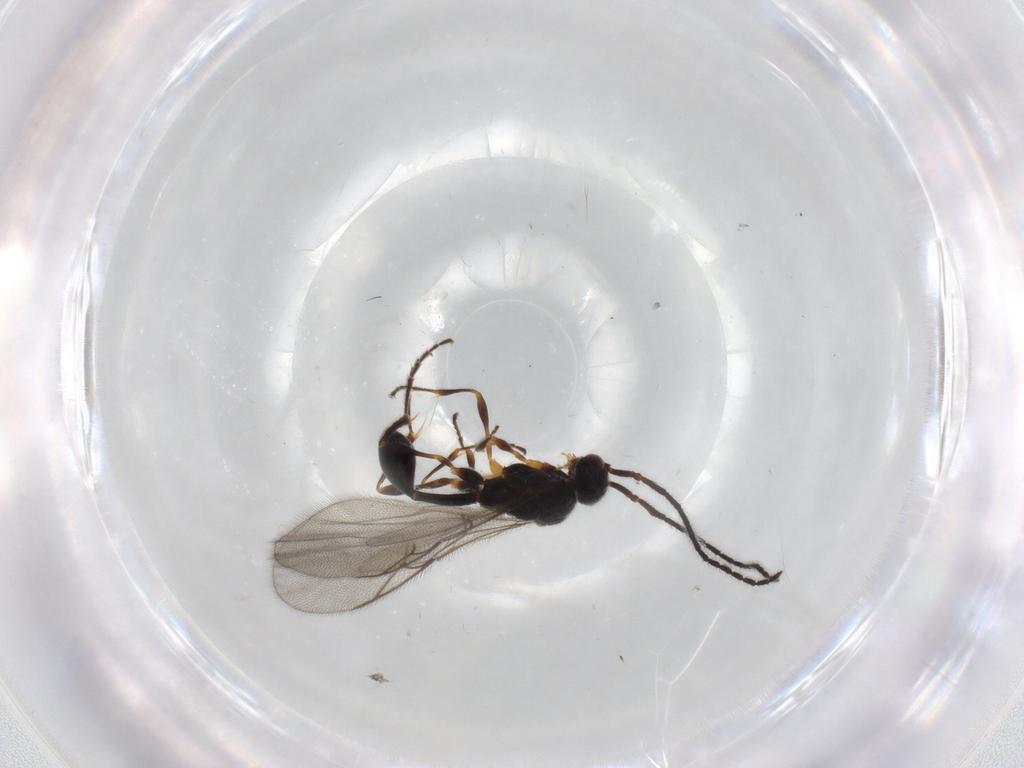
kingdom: Animalia
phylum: Arthropoda
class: Insecta
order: Hymenoptera
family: Diapriidae
